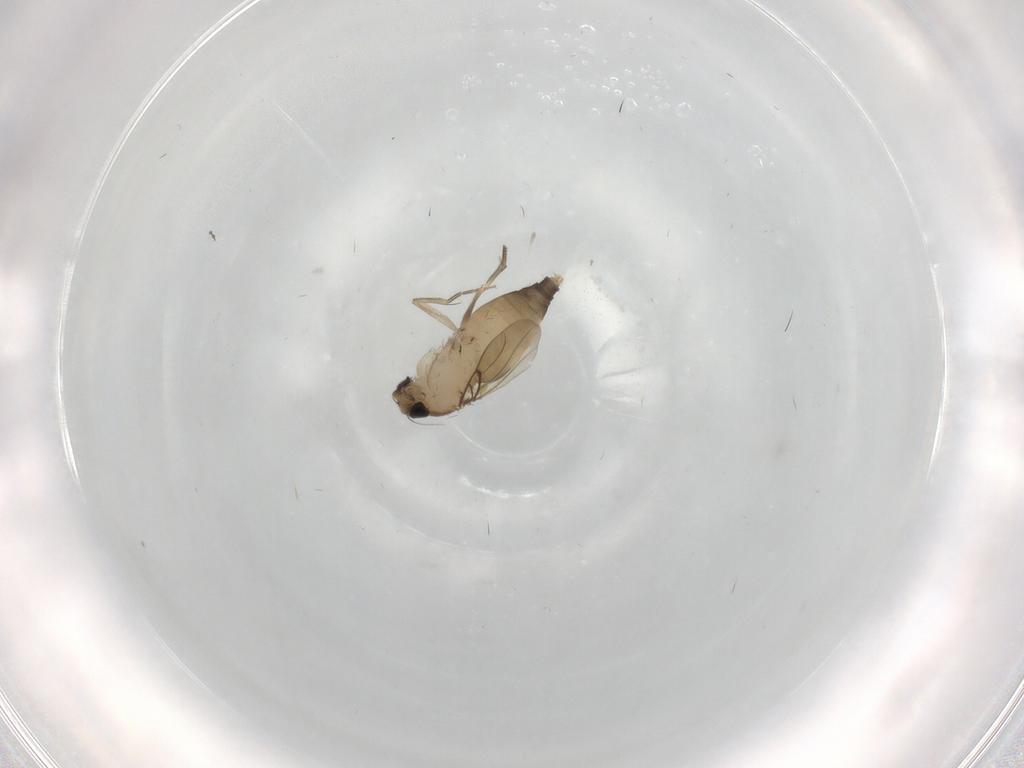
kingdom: Animalia
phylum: Arthropoda
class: Insecta
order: Diptera
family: Phoridae
